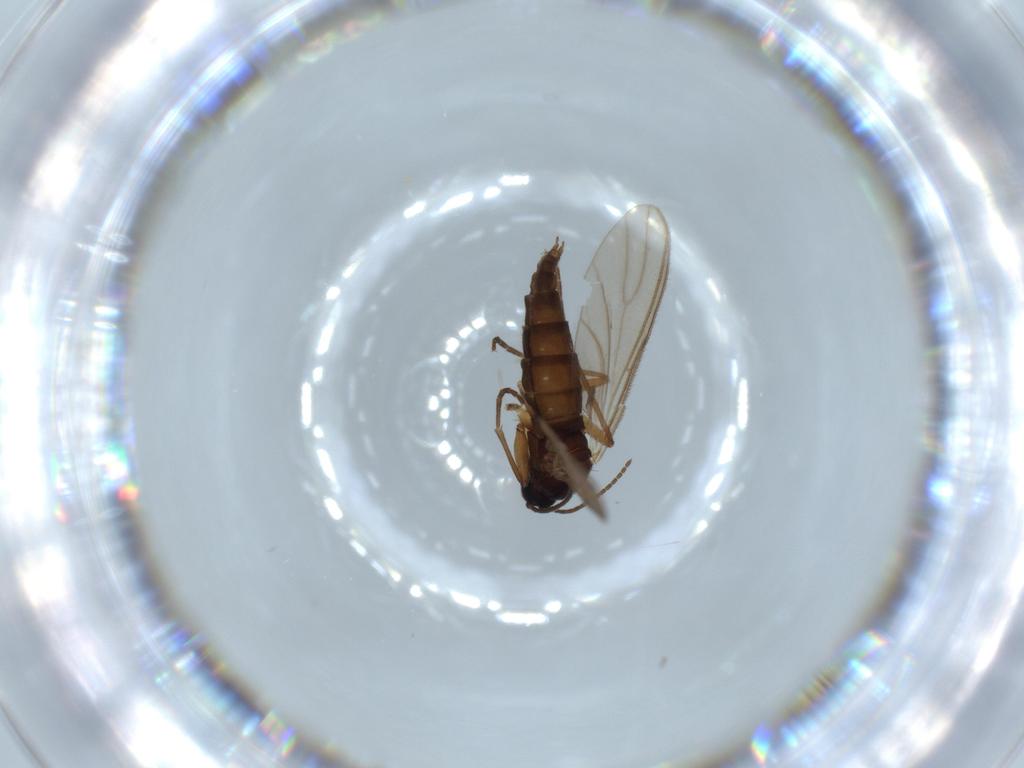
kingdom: Animalia
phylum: Arthropoda
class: Insecta
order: Diptera
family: Sciaridae
